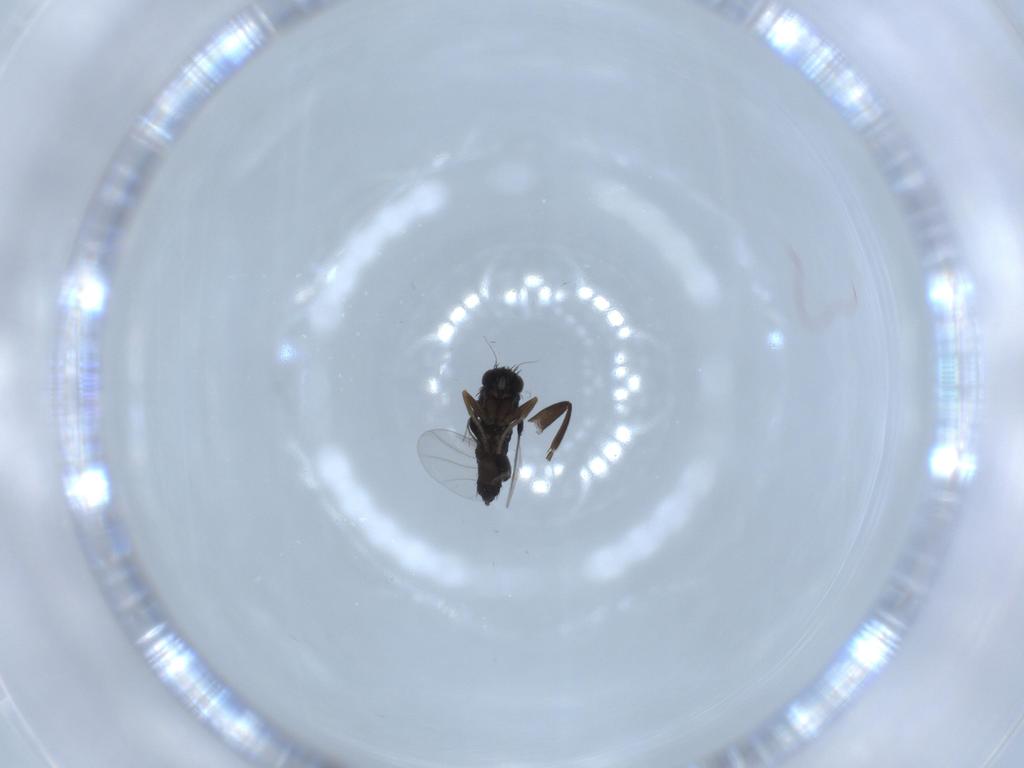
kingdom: Animalia
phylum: Arthropoda
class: Insecta
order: Diptera
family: Phoridae
